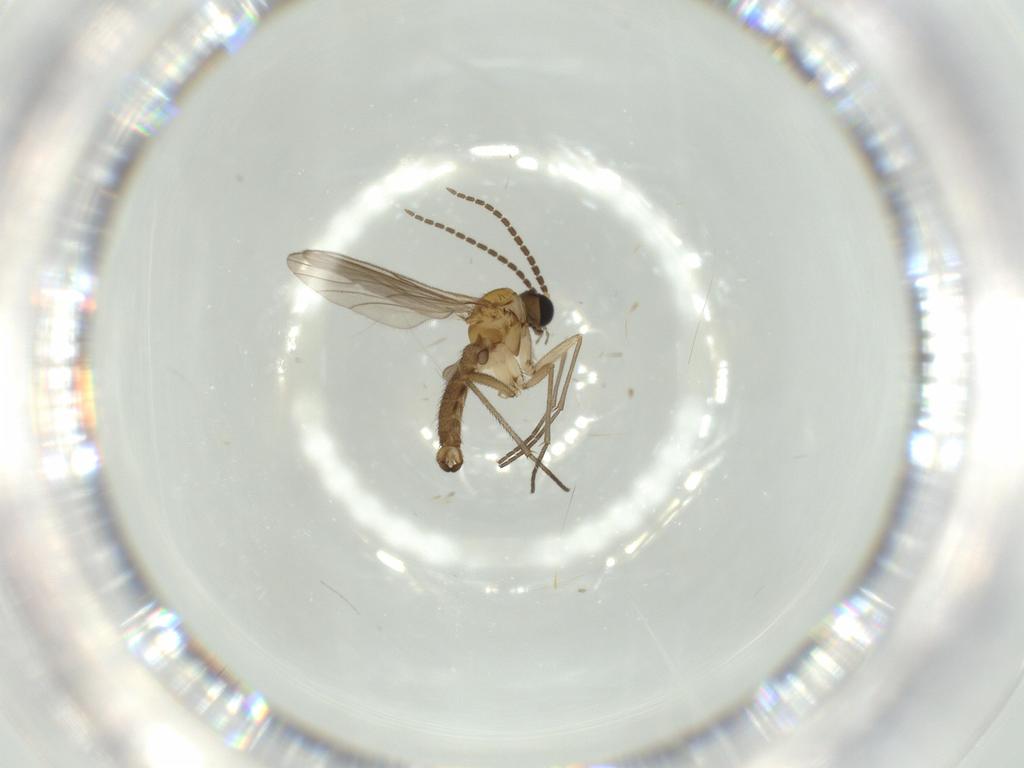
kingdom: Animalia
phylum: Arthropoda
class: Insecta
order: Diptera
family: Sciaridae
